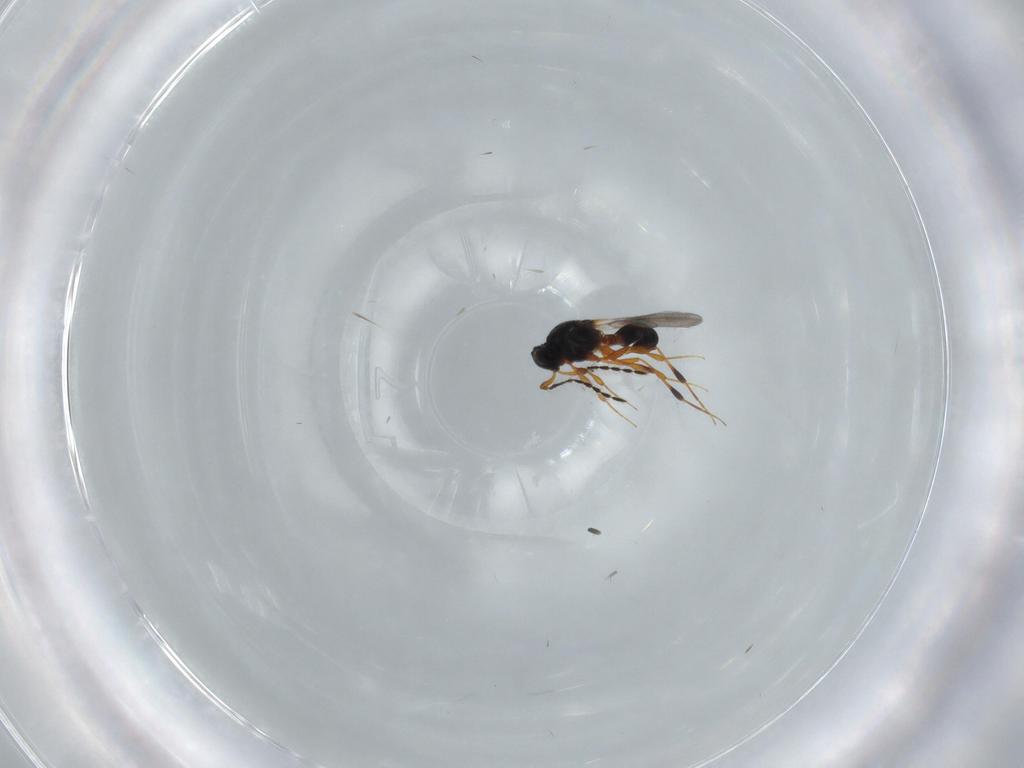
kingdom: Animalia
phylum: Arthropoda
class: Insecta
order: Hymenoptera
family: Platygastridae
